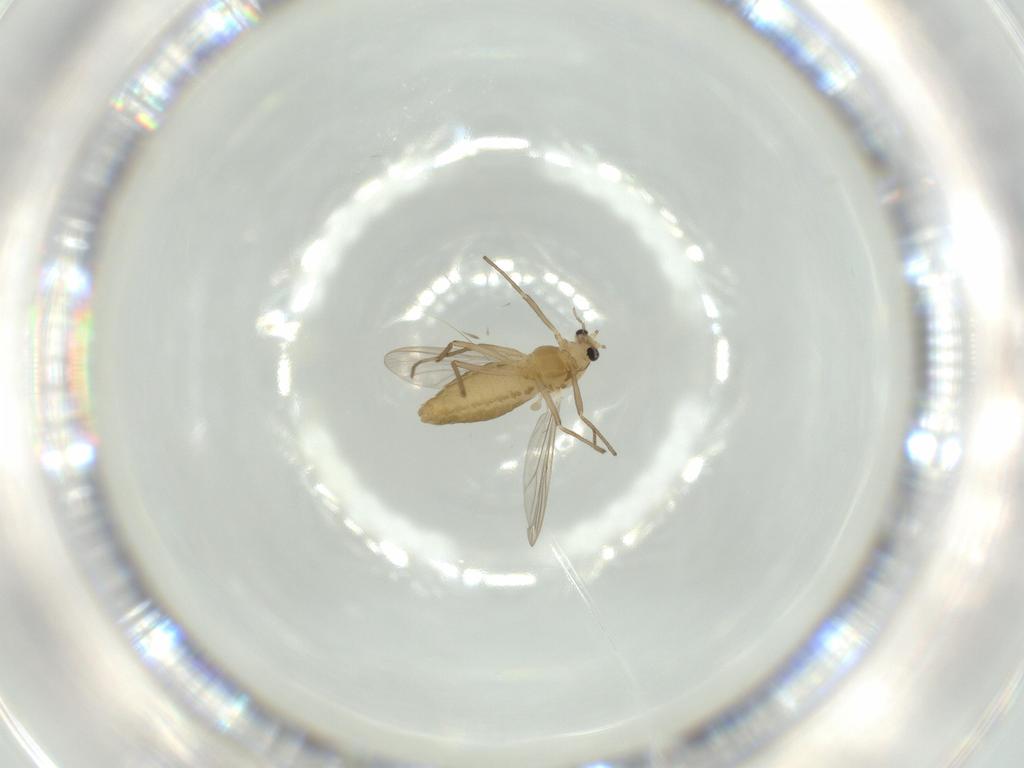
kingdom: Animalia
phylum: Arthropoda
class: Insecta
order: Diptera
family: Chironomidae
